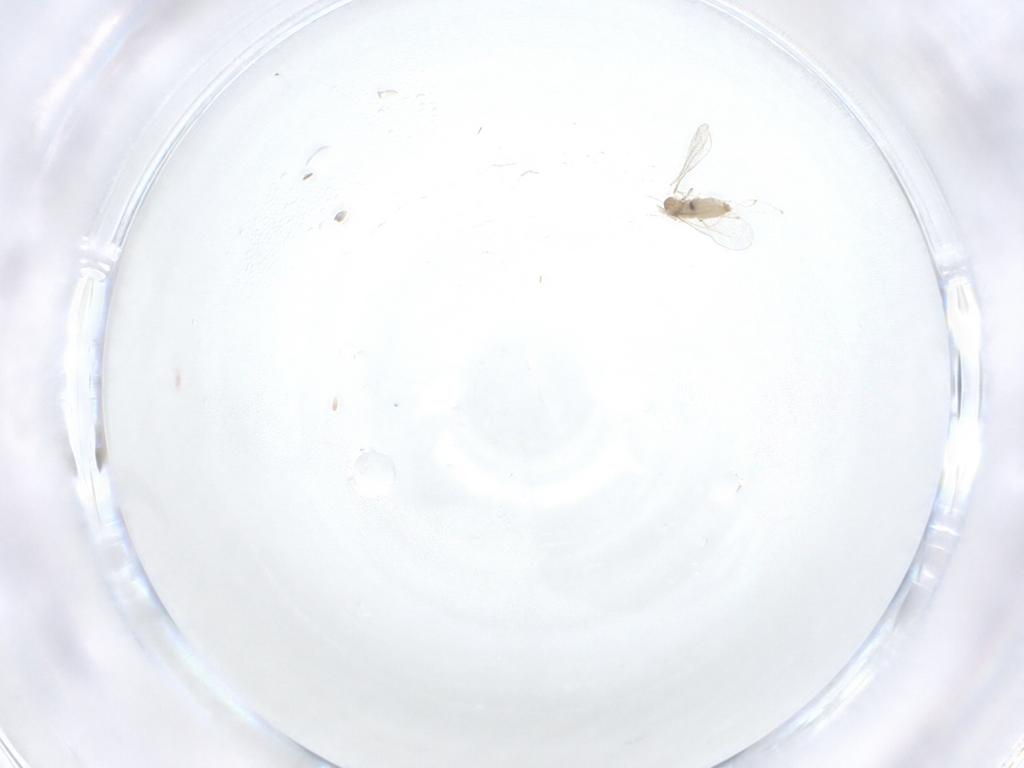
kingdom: Animalia
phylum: Arthropoda
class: Insecta
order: Diptera
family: Cecidomyiidae
